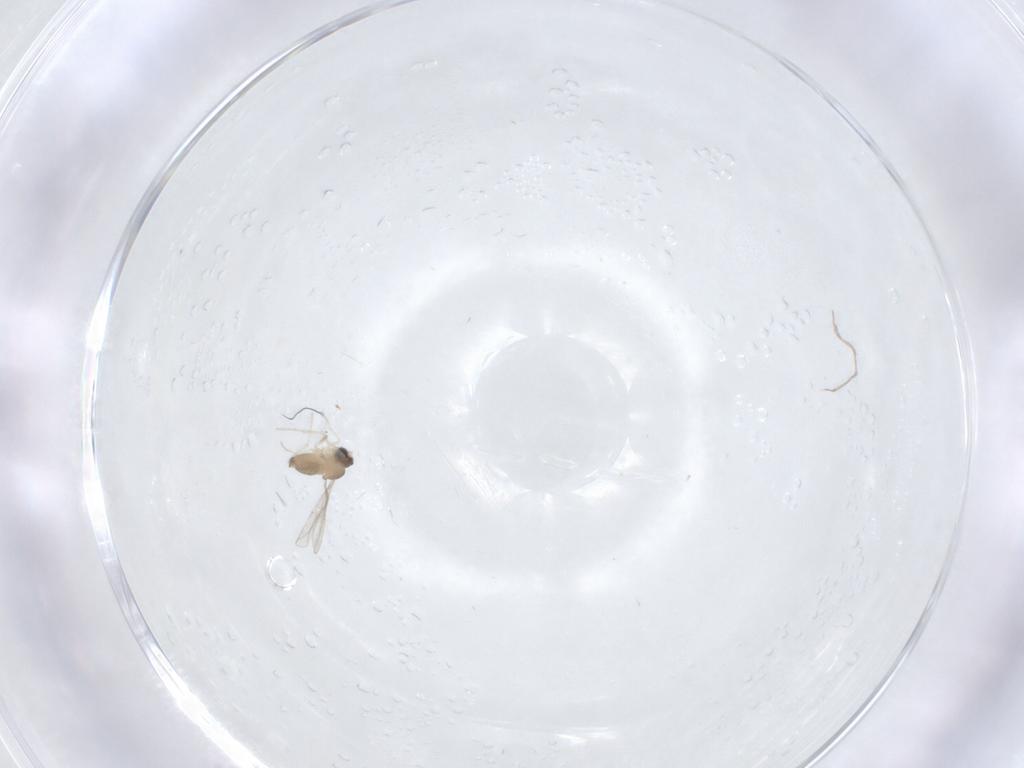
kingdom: Animalia
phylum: Arthropoda
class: Insecta
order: Diptera
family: Cecidomyiidae
